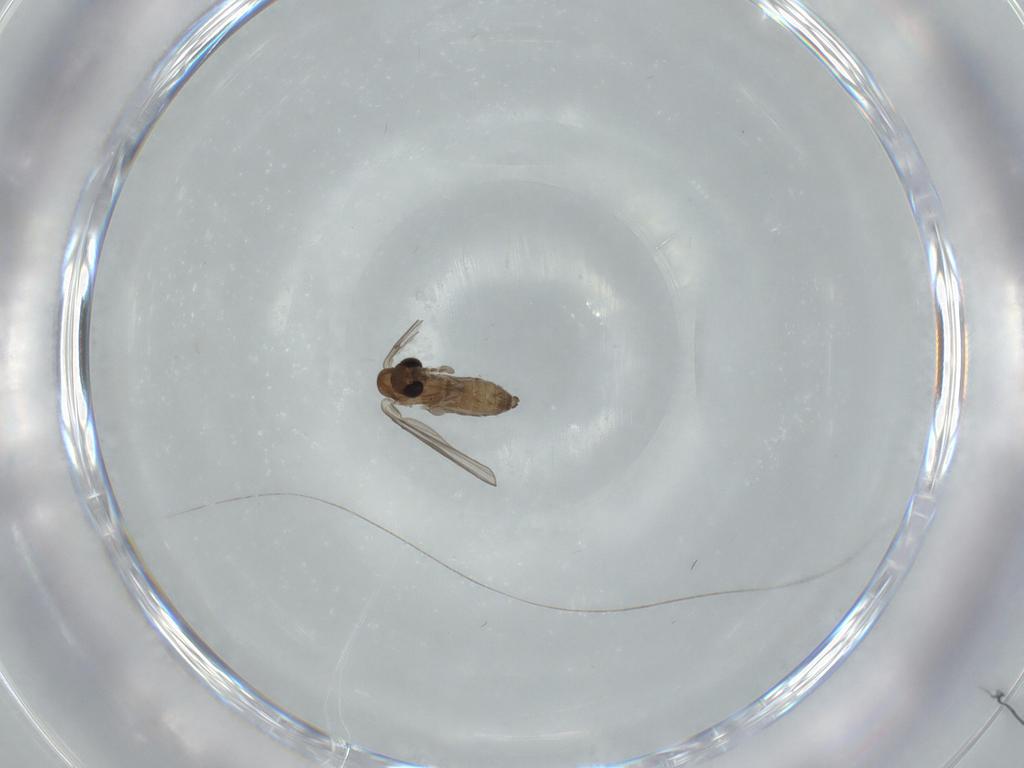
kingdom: Animalia
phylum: Arthropoda
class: Insecta
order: Diptera
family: Psychodidae
